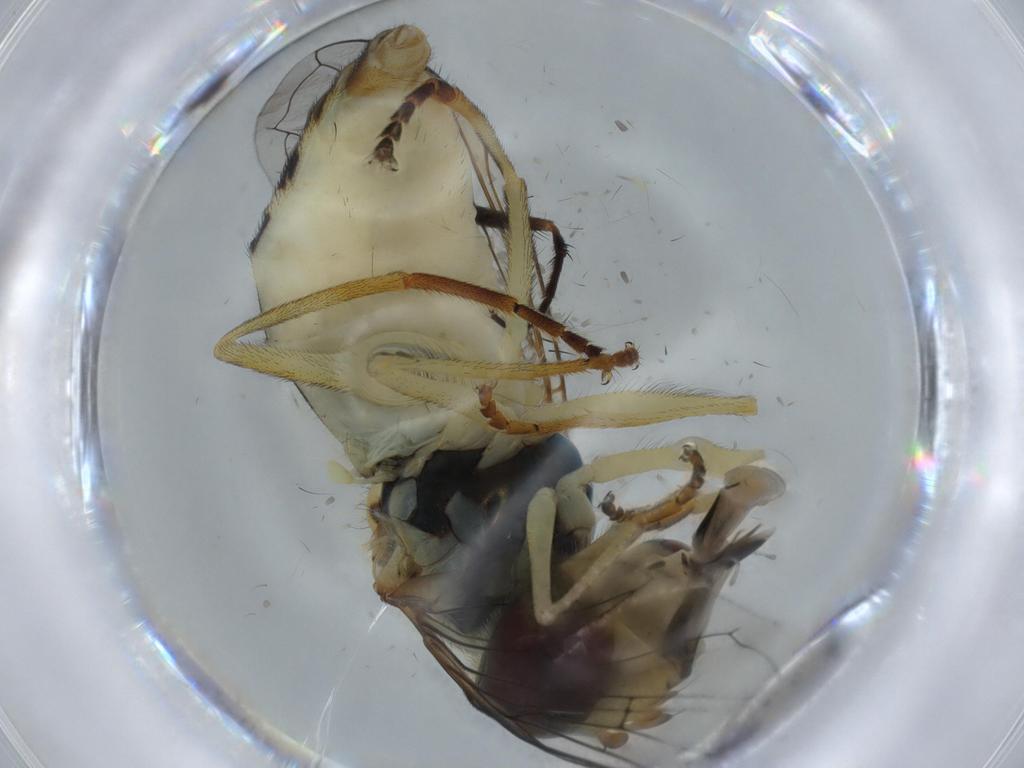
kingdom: Animalia
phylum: Arthropoda
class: Insecta
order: Diptera
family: Syrphidae
